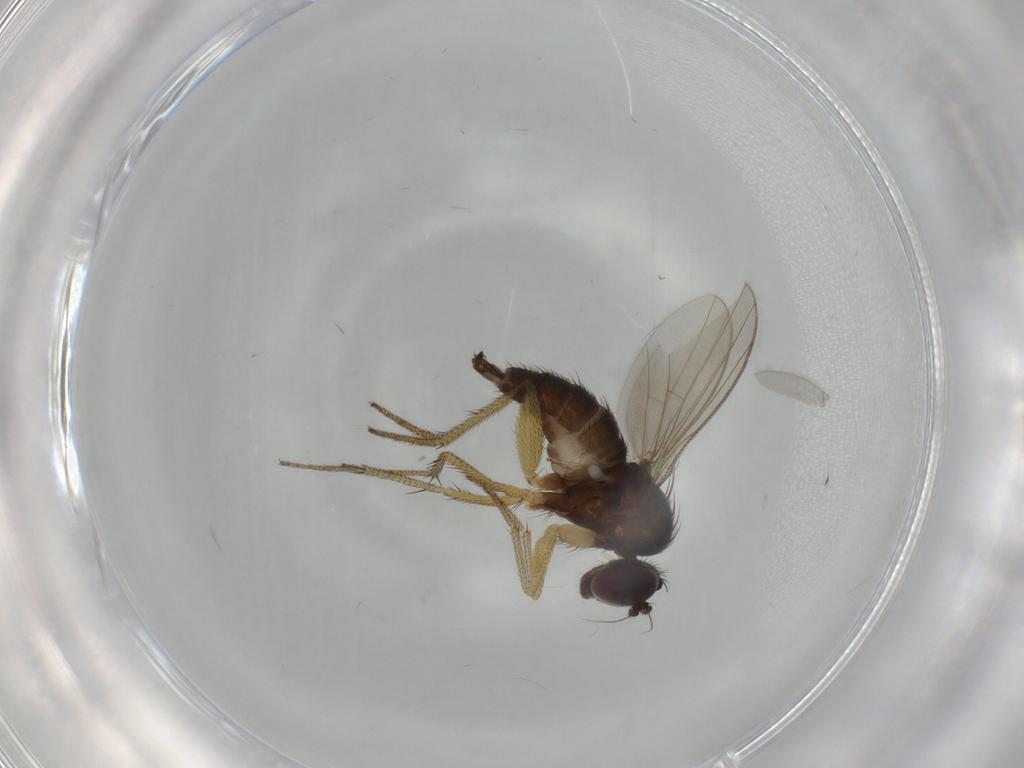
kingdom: Animalia
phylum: Arthropoda
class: Insecta
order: Diptera
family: Dolichopodidae
